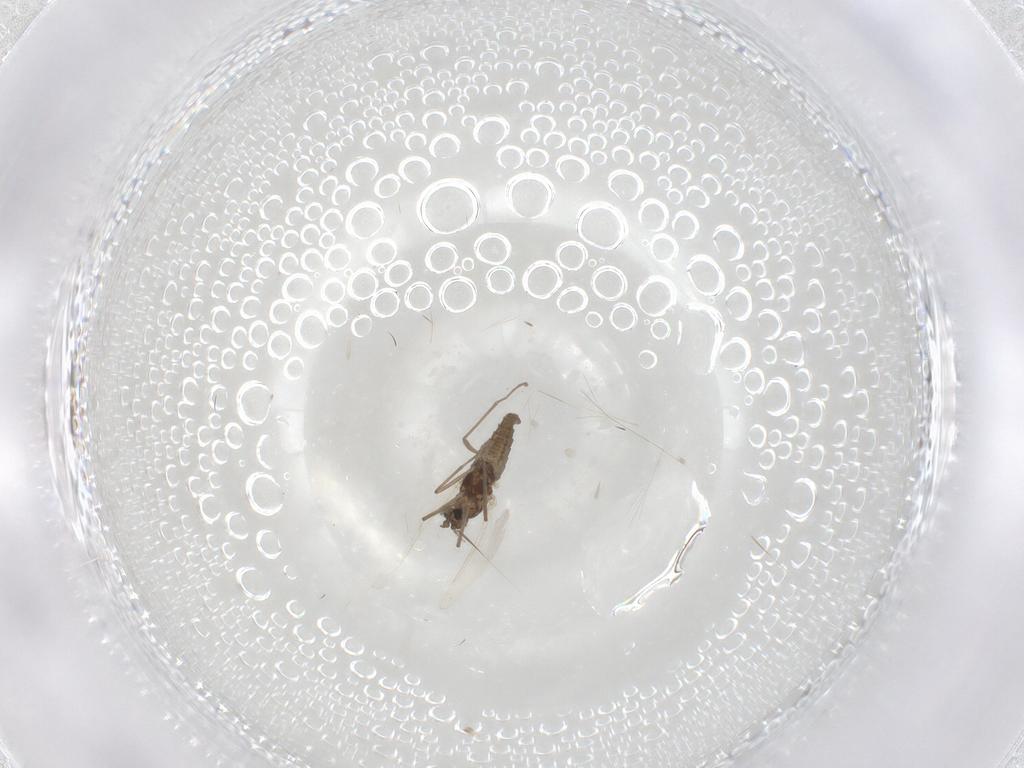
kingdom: Animalia
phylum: Arthropoda
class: Insecta
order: Diptera
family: Cecidomyiidae
